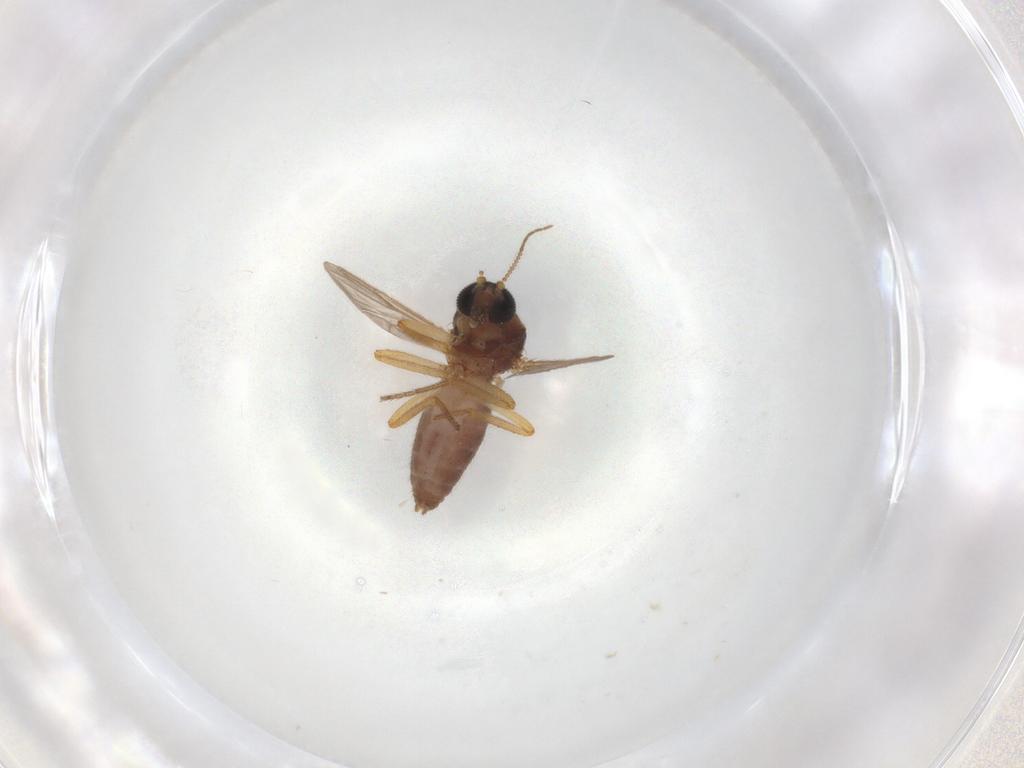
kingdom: Animalia
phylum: Arthropoda
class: Insecta
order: Diptera
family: Ceratopogonidae
